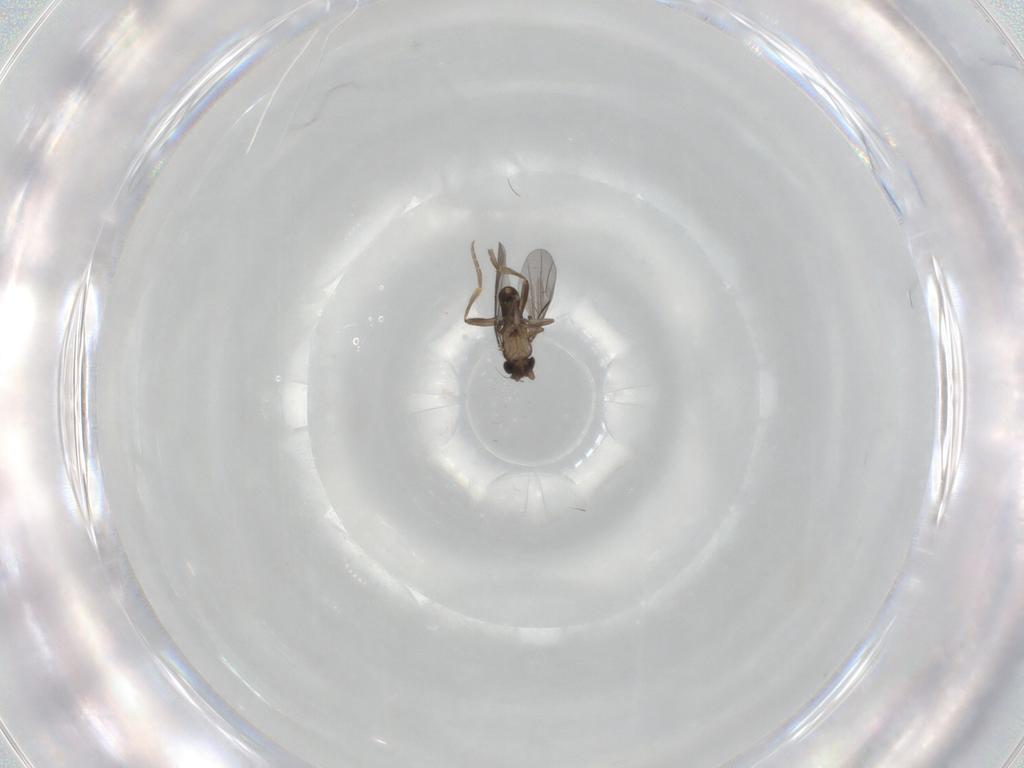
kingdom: Animalia
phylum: Arthropoda
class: Insecta
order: Diptera
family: Cecidomyiidae
